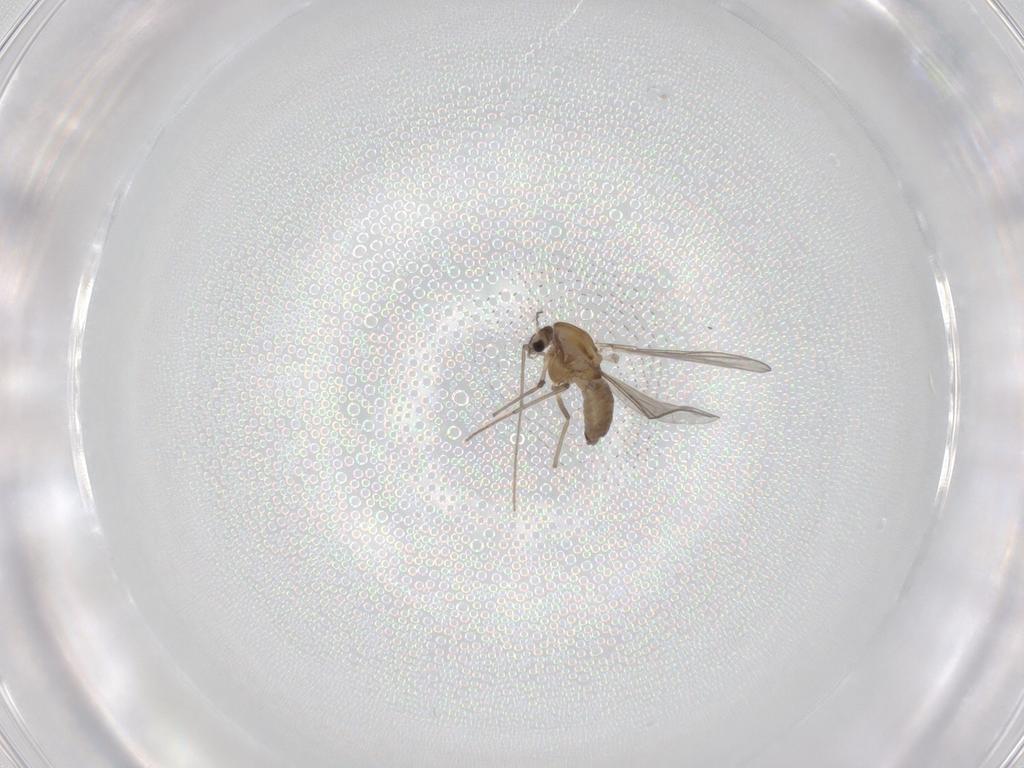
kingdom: Animalia
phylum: Arthropoda
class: Insecta
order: Diptera
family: Chironomidae
